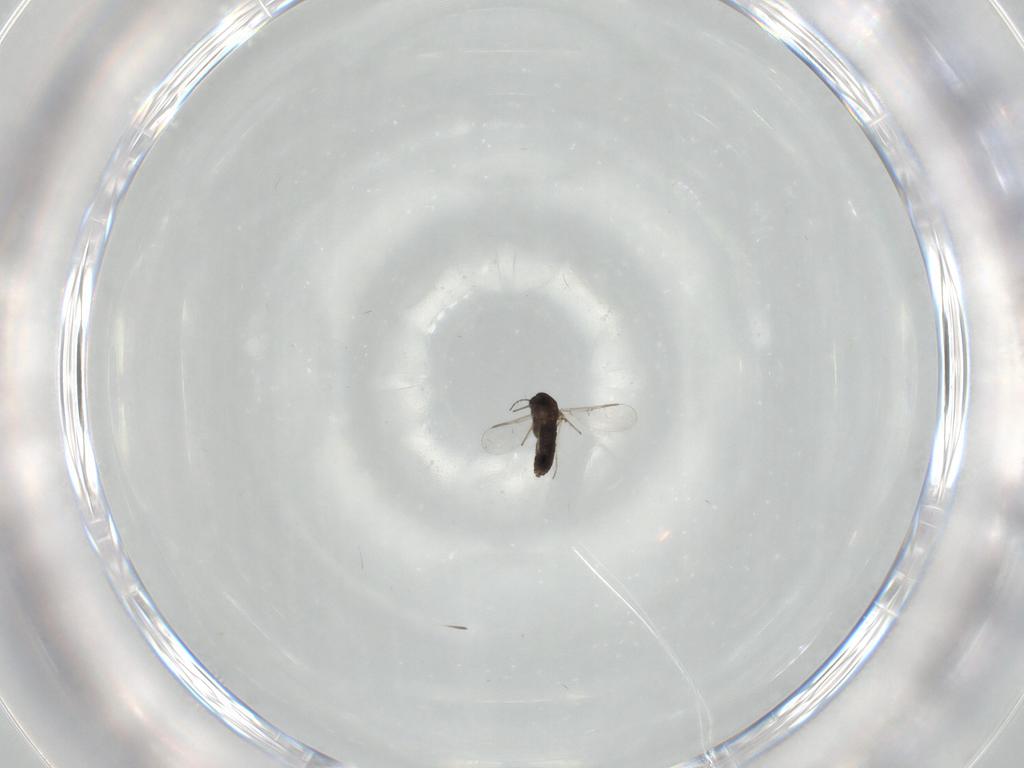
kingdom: Animalia
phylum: Arthropoda
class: Insecta
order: Diptera
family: Chironomidae
